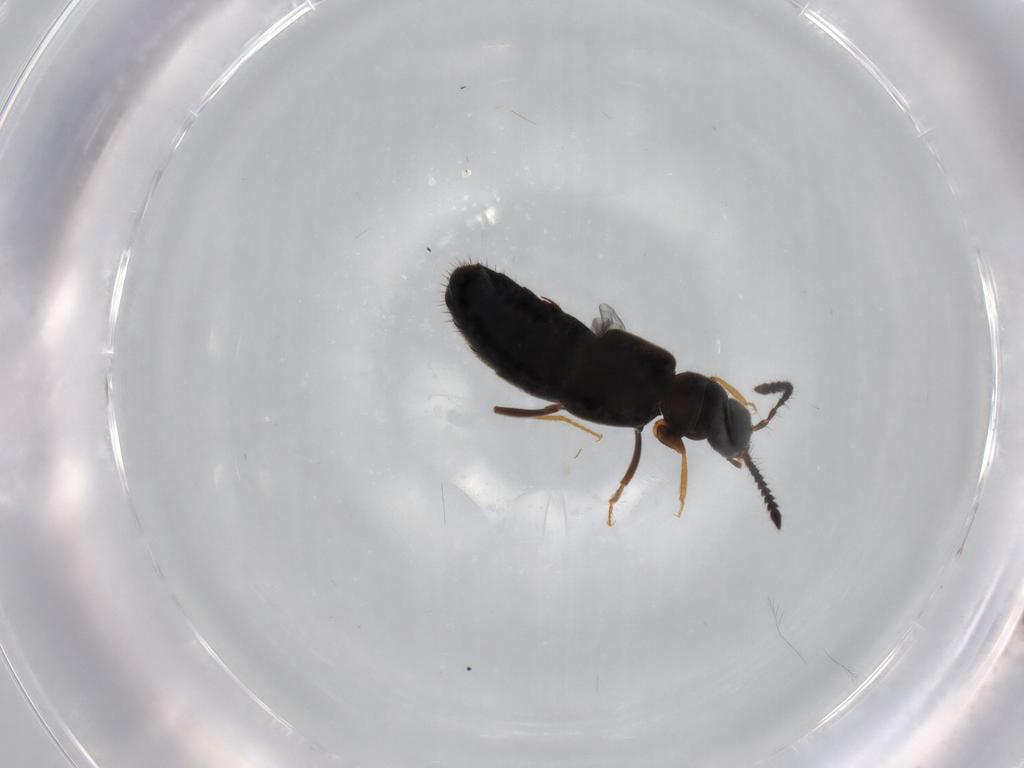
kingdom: Animalia
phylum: Arthropoda
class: Insecta
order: Coleoptera
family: Staphylinidae
